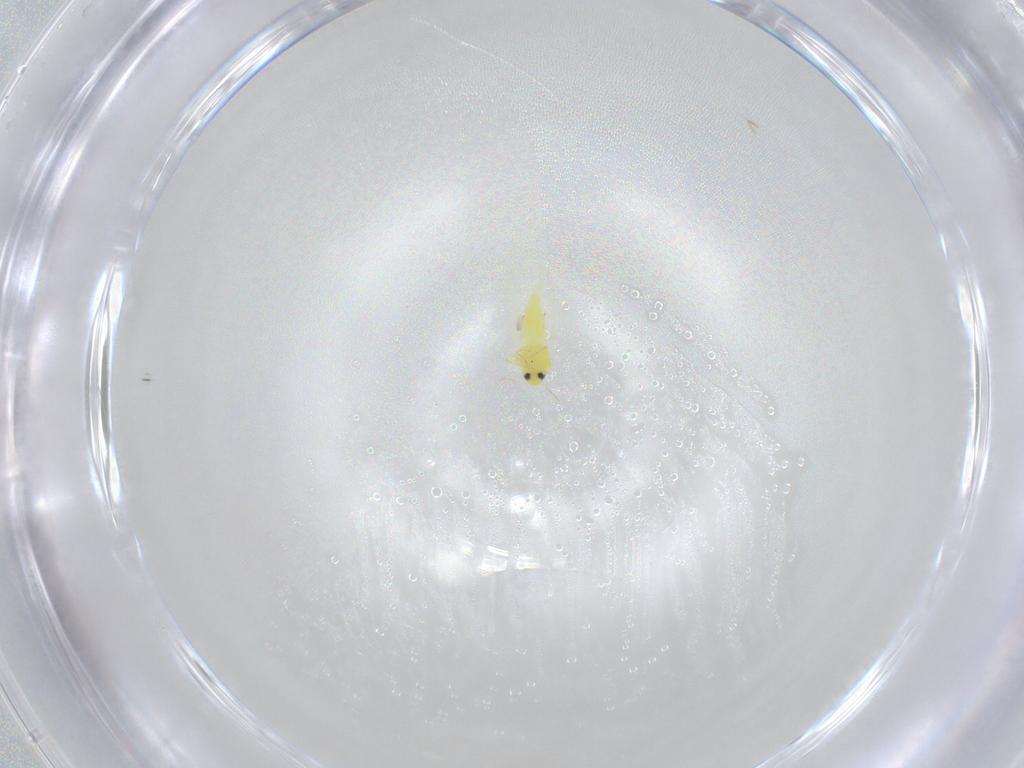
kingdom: Animalia
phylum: Arthropoda
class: Insecta
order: Hemiptera
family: Aleyrodidae
